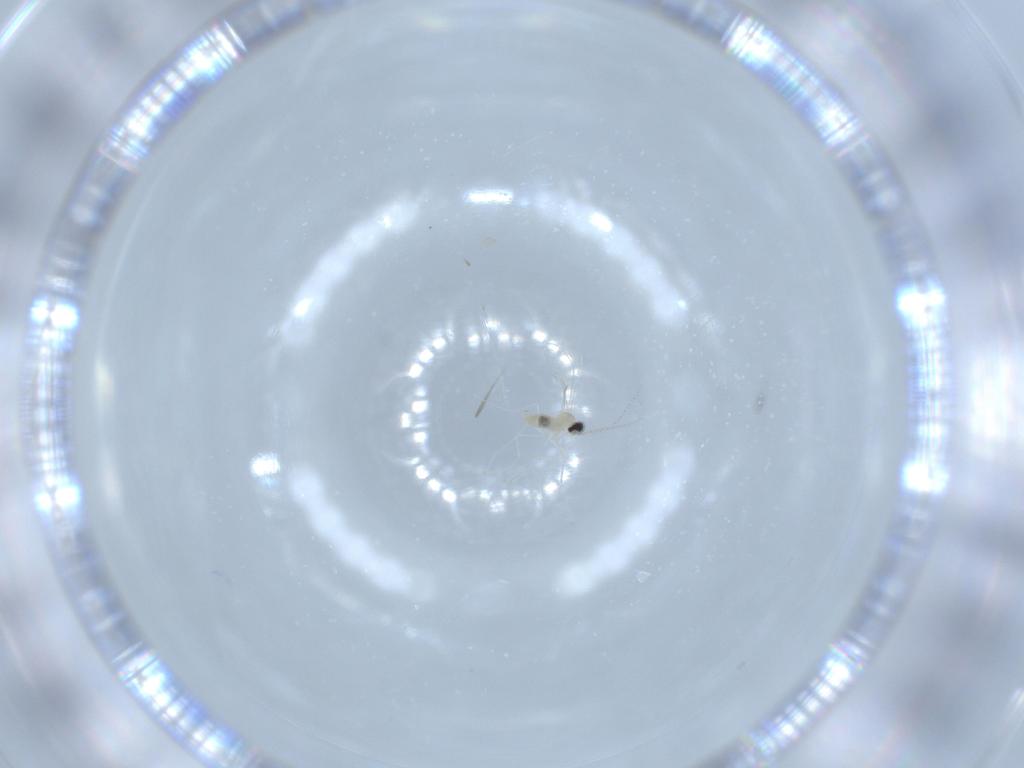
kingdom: Animalia
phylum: Arthropoda
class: Insecta
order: Diptera
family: Cecidomyiidae
